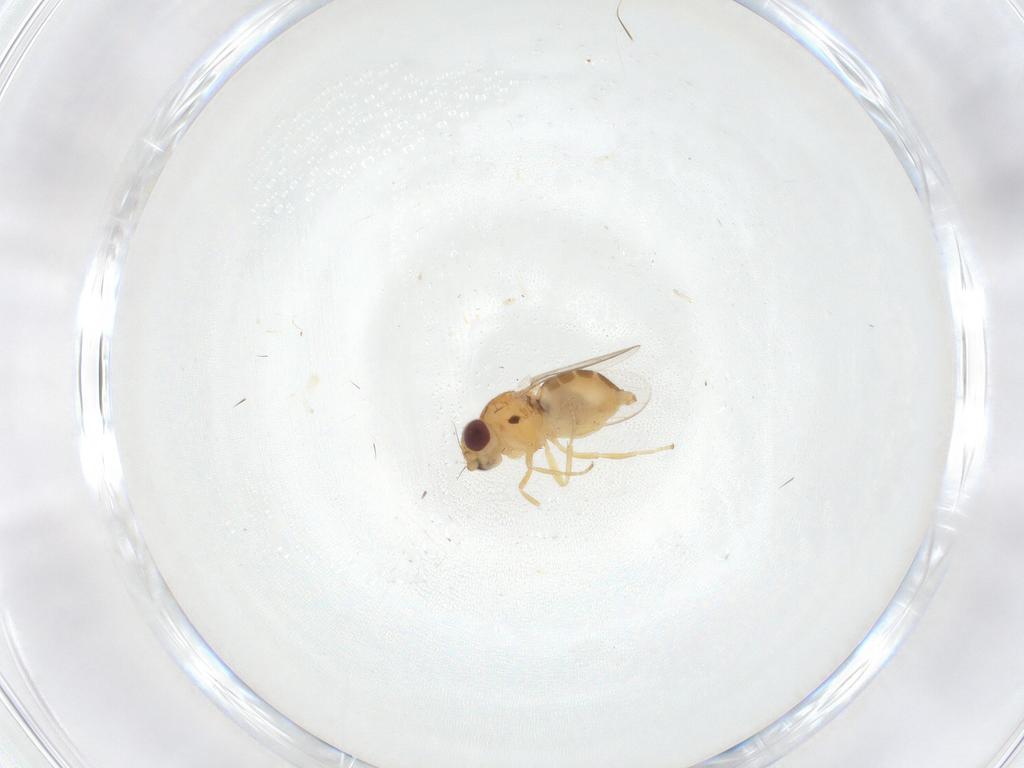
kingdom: Animalia
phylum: Arthropoda
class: Insecta
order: Diptera
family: Chloropidae
